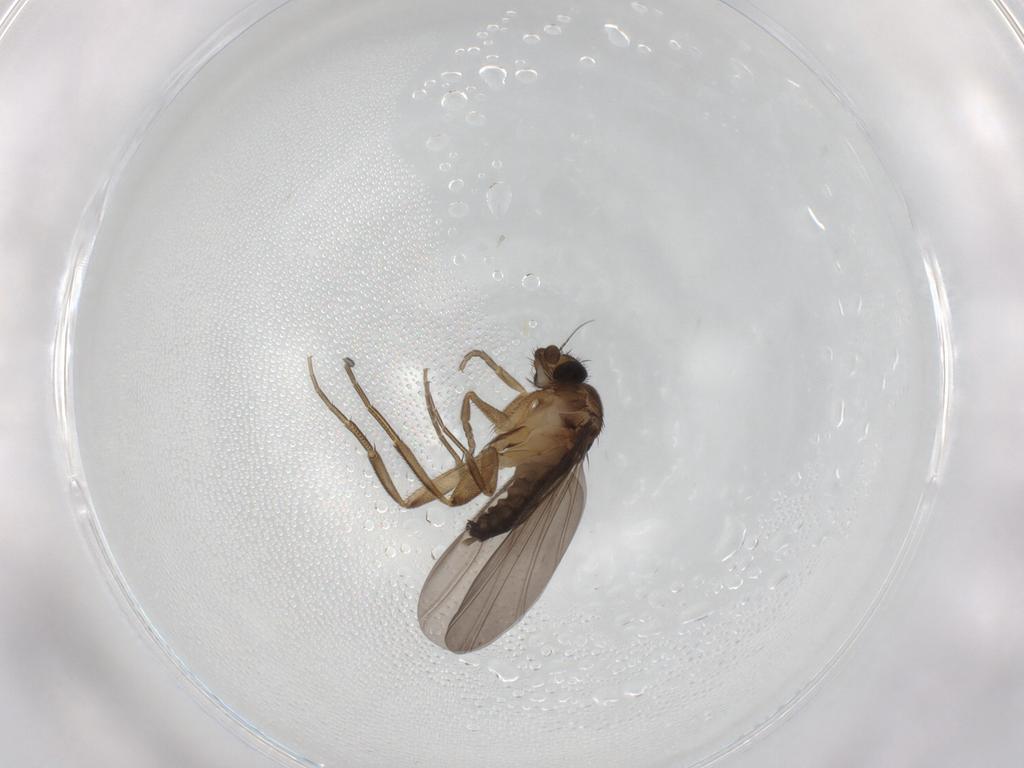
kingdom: Animalia
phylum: Arthropoda
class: Insecta
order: Diptera
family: Phoridae
